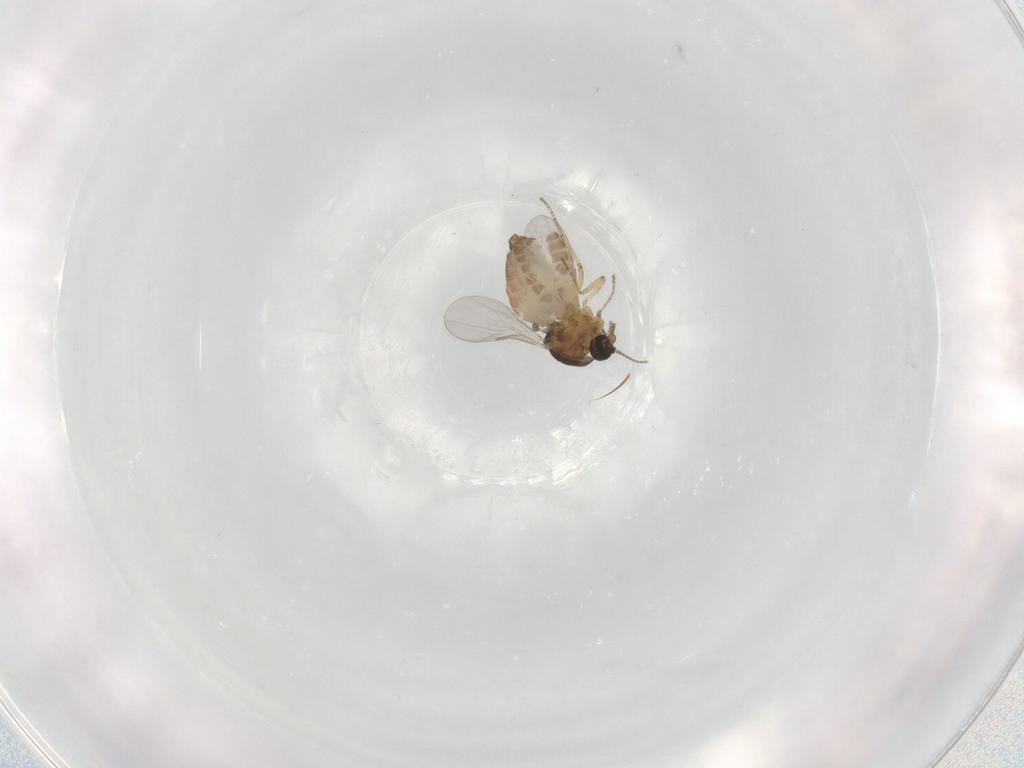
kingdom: Animalia
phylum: Arthropoda
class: Insecta
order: Diptera
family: Ceratopogonidae
